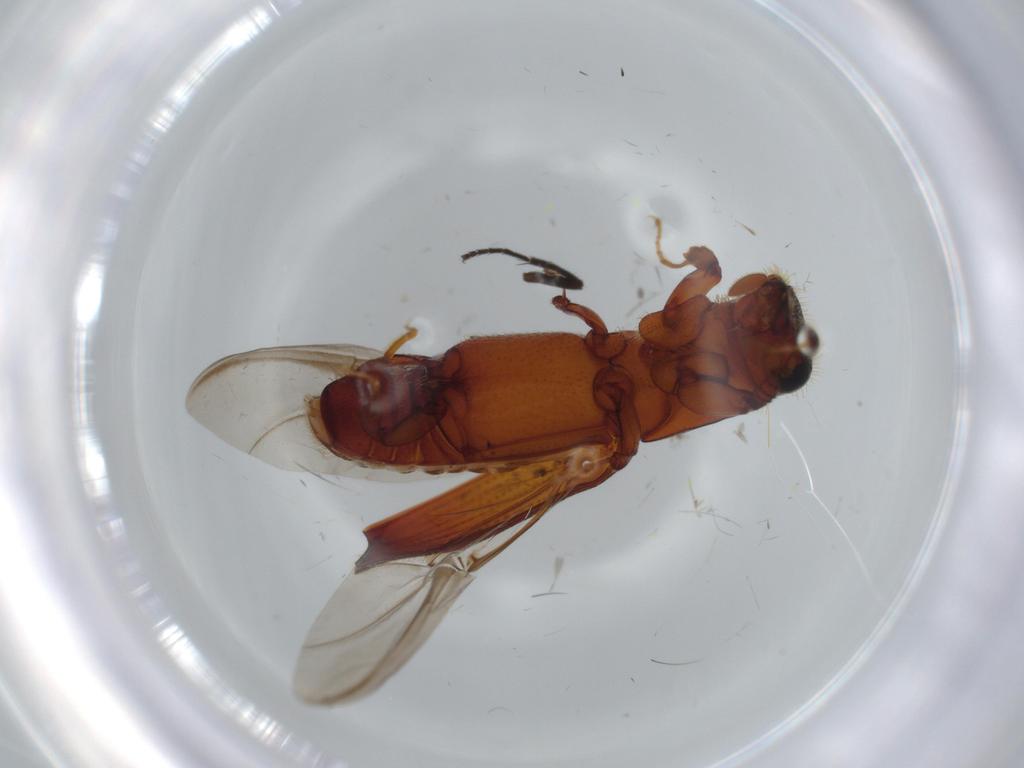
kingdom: Animalia
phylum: Arthropoda
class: Insecta
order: Coleoptera
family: Curculionidae
